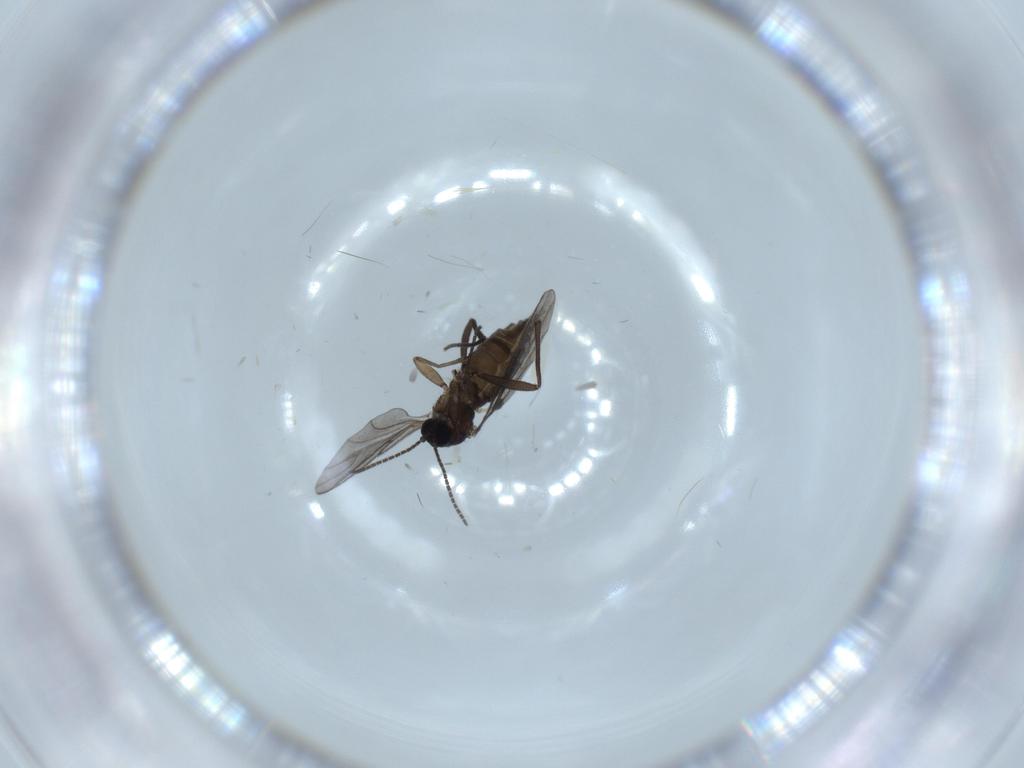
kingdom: Animalia
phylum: Arthropoda
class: Insecta
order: Diptera
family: Sciaridae
